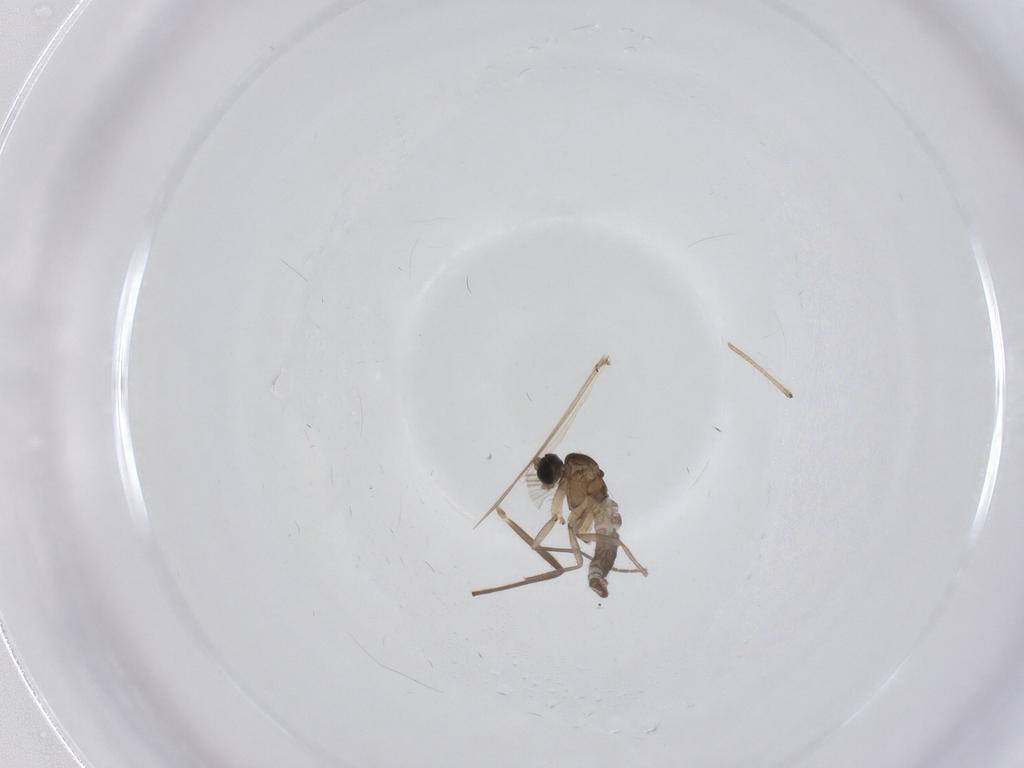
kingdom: Animalia
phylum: Arthropoda
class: Insecta
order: Diptera
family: Sciaridae
